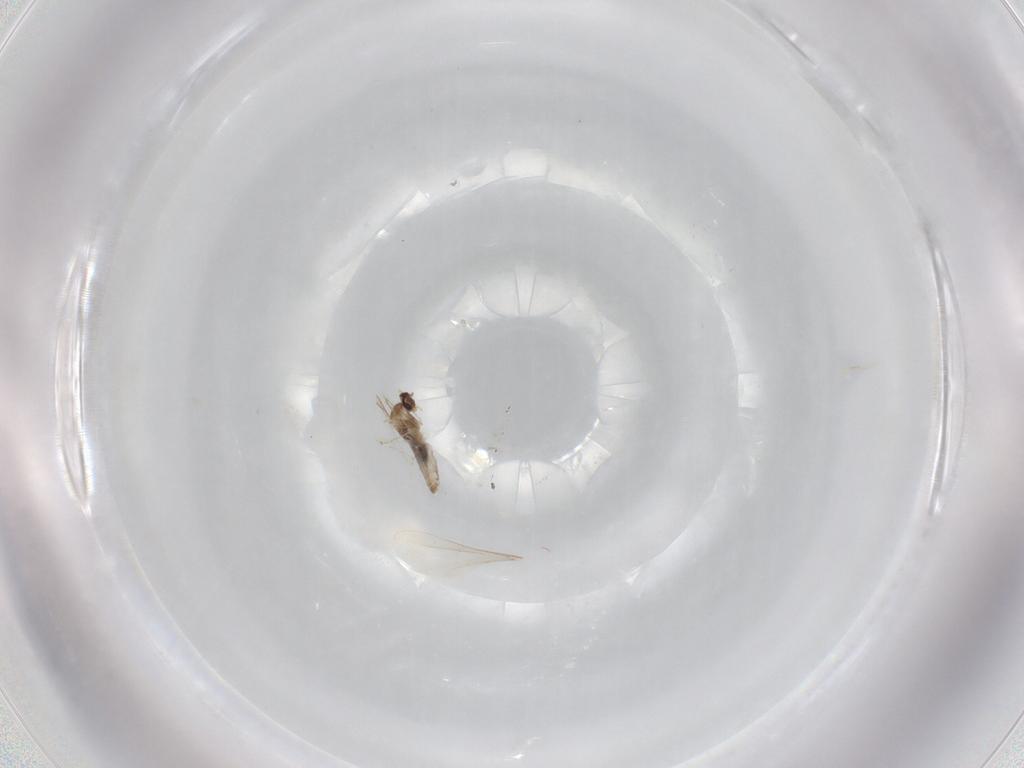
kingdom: Animalia
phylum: Arthropoda
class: Insecta
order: Diptera
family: Cecidomyiidae
